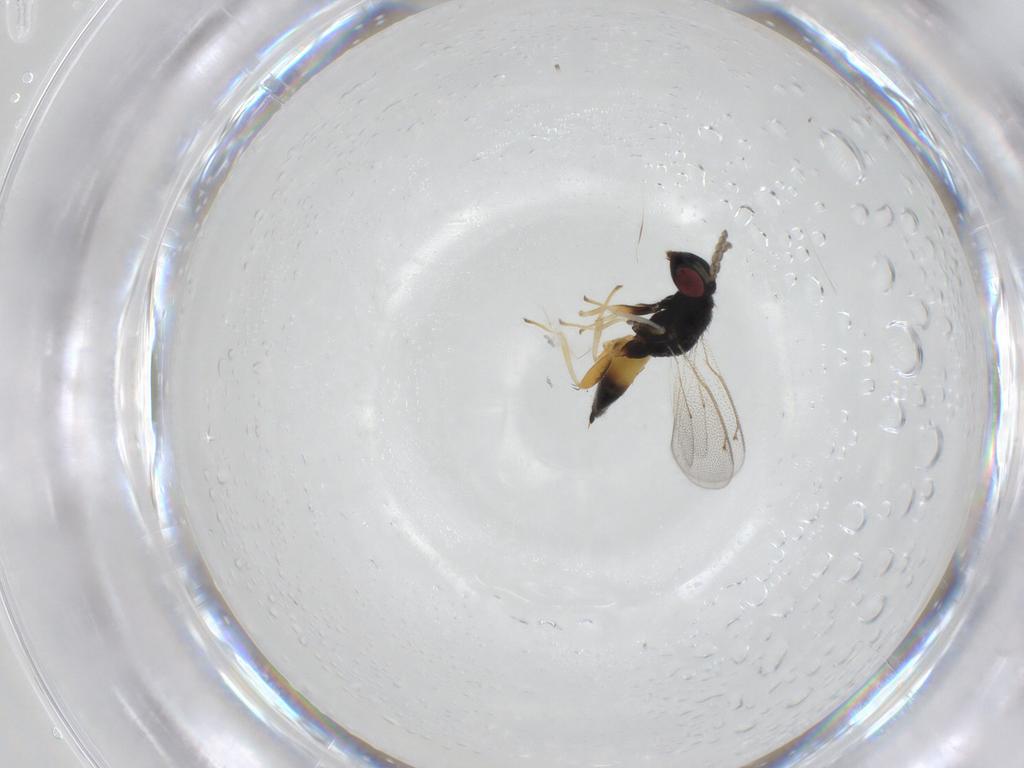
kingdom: Animalia
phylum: Arthropoda
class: Insecta
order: Hymenoptera
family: Eulophidae
